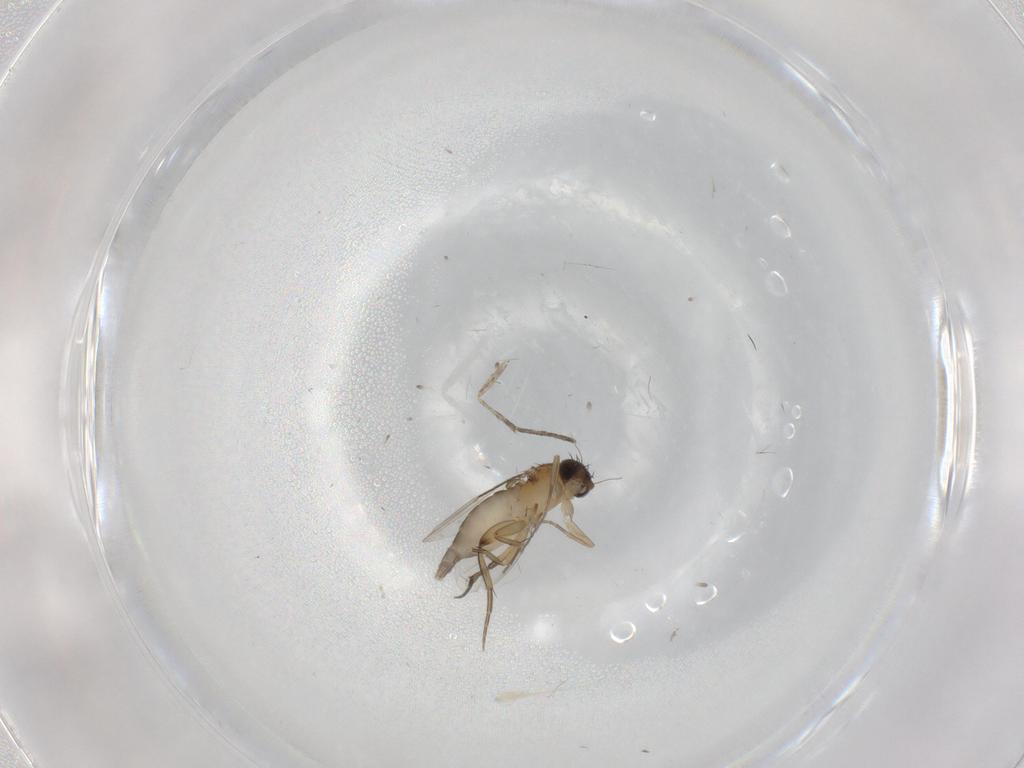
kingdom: Animalia
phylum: Arthropoda
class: Insecta
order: Diptera
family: Phoridae
